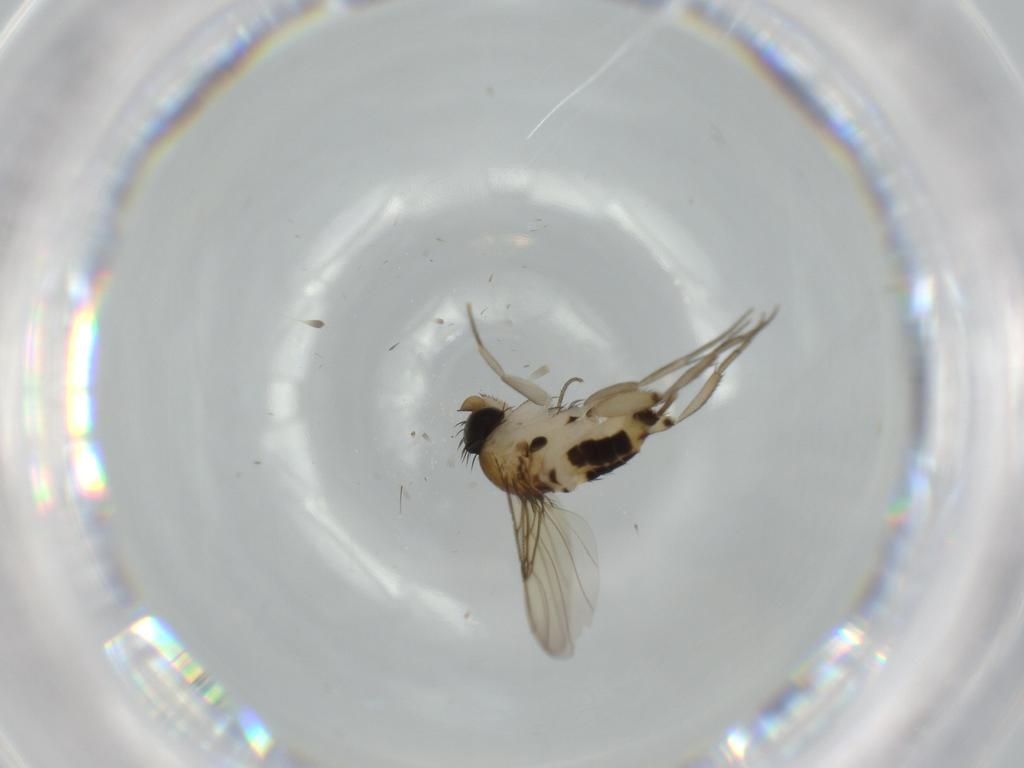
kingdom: Animalia
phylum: Arthropoda
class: Insecta
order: Diptera
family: Phoridae
